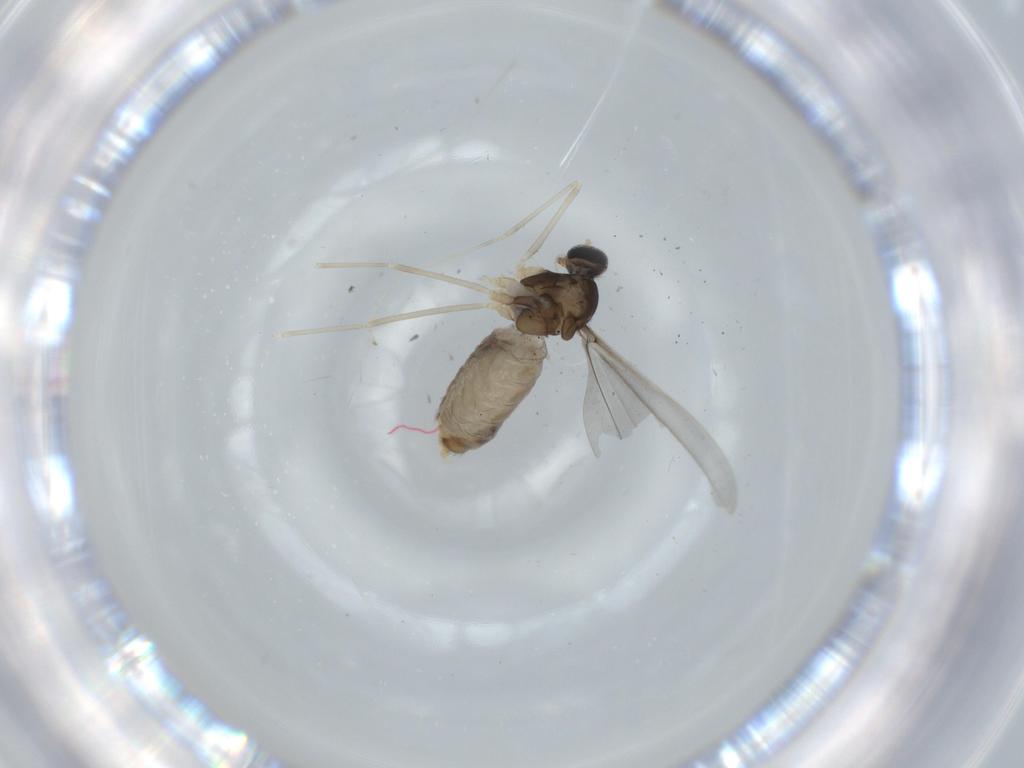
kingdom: Animalia
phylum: Arthropoda
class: Insecta
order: Diptera
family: Cecidomyiidae
